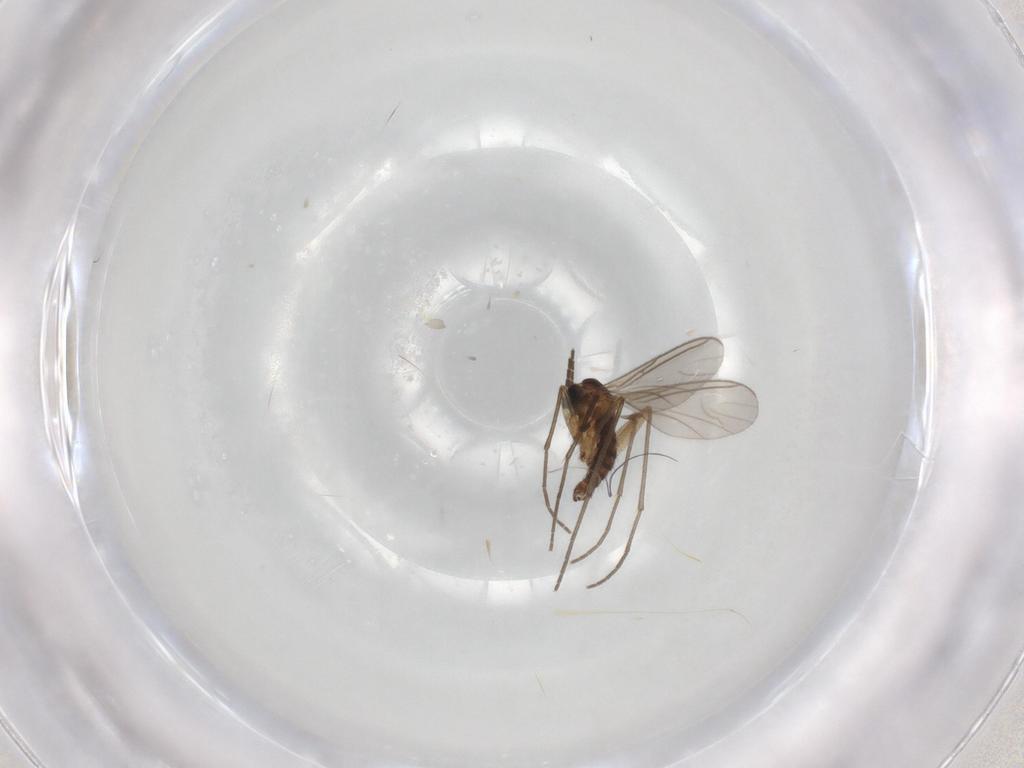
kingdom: Animalia
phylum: Arthropoda
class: Insecta
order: Diptera
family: Sciaridae
